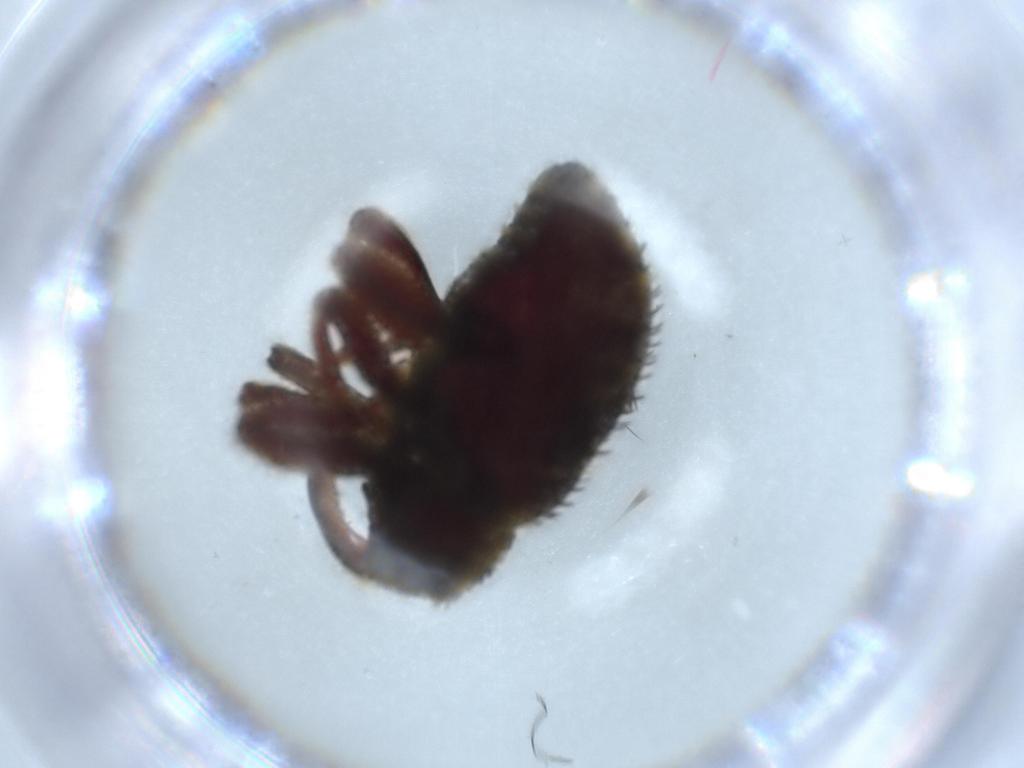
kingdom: Animalia
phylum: Arthropoda
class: Insecta
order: Coleoptera
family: Curculionidae
